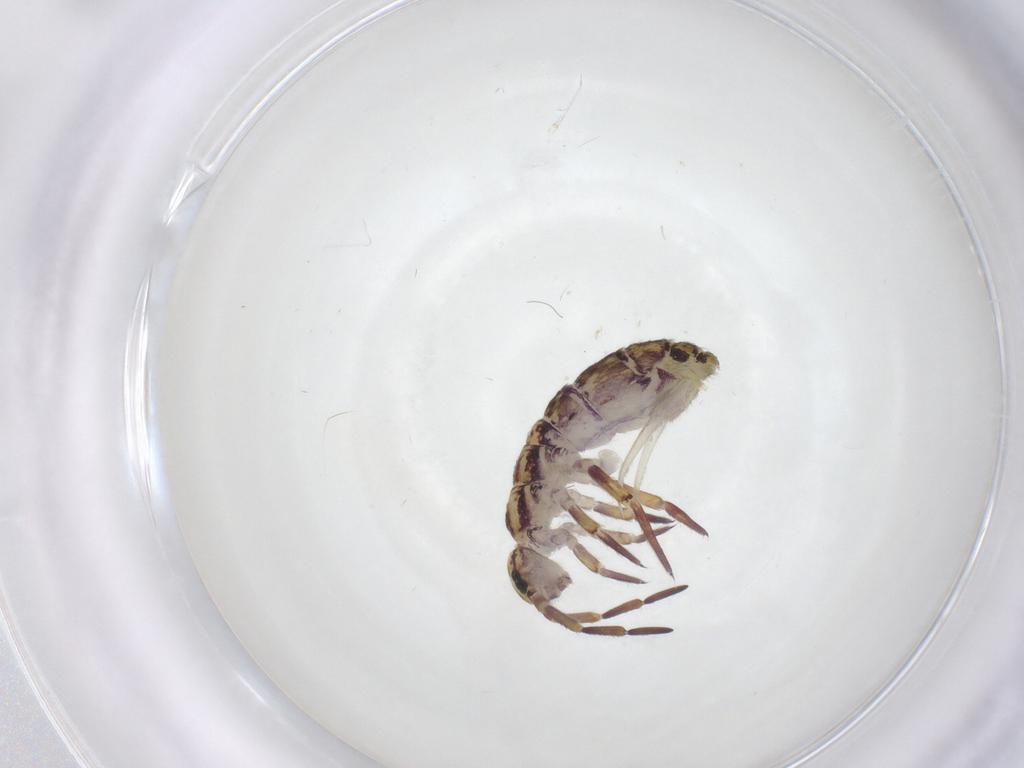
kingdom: Animalia
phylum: Arthropoda
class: Collembola
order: Entomobryomorpha
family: Isotomidae
